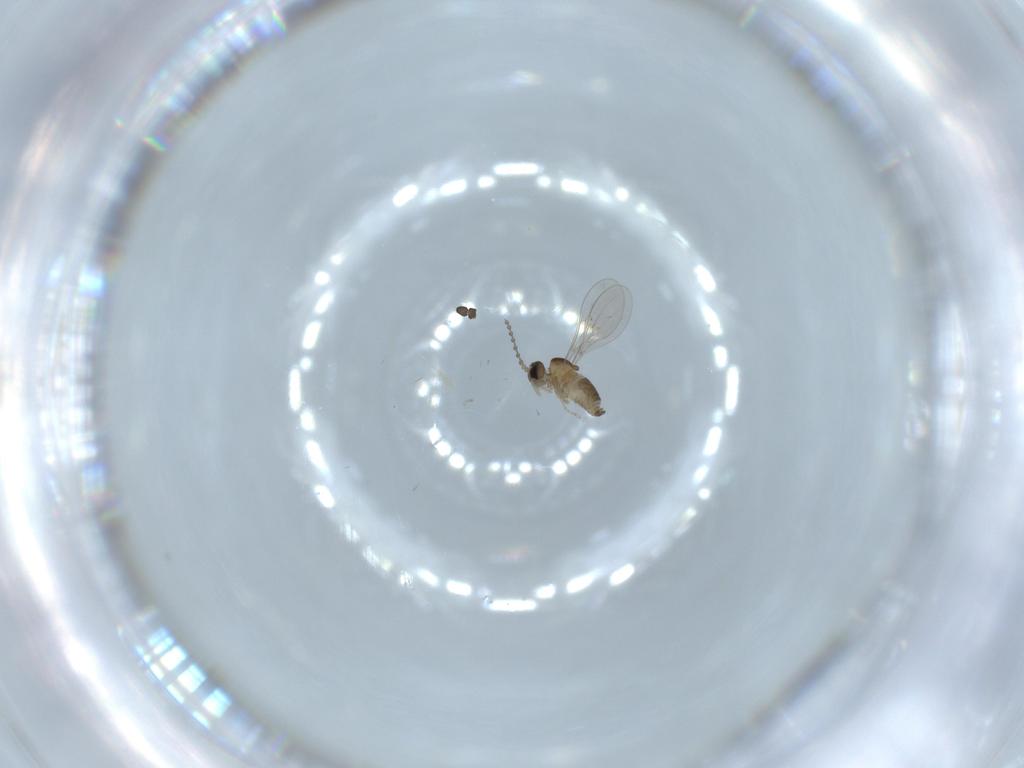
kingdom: Animalia
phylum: Arthropoda
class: Insecta
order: Diptera
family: Cecidomyiidae
